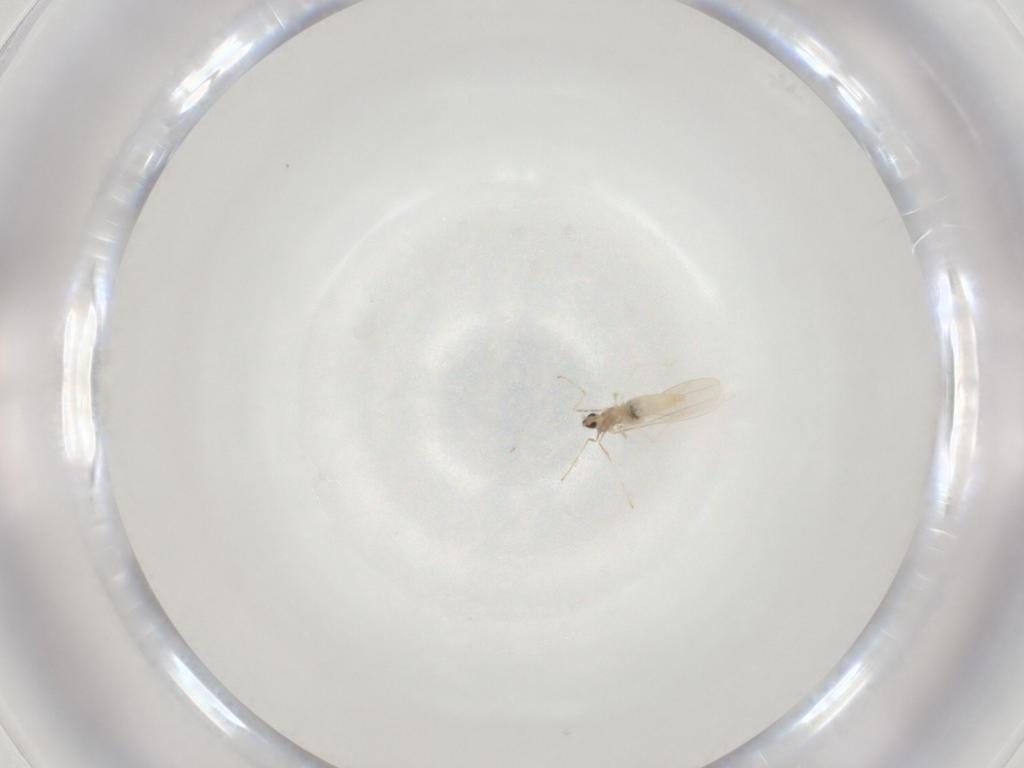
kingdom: Animalia
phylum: Arthropoda
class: Insecta
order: Diptera
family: Cecidomyiidae
